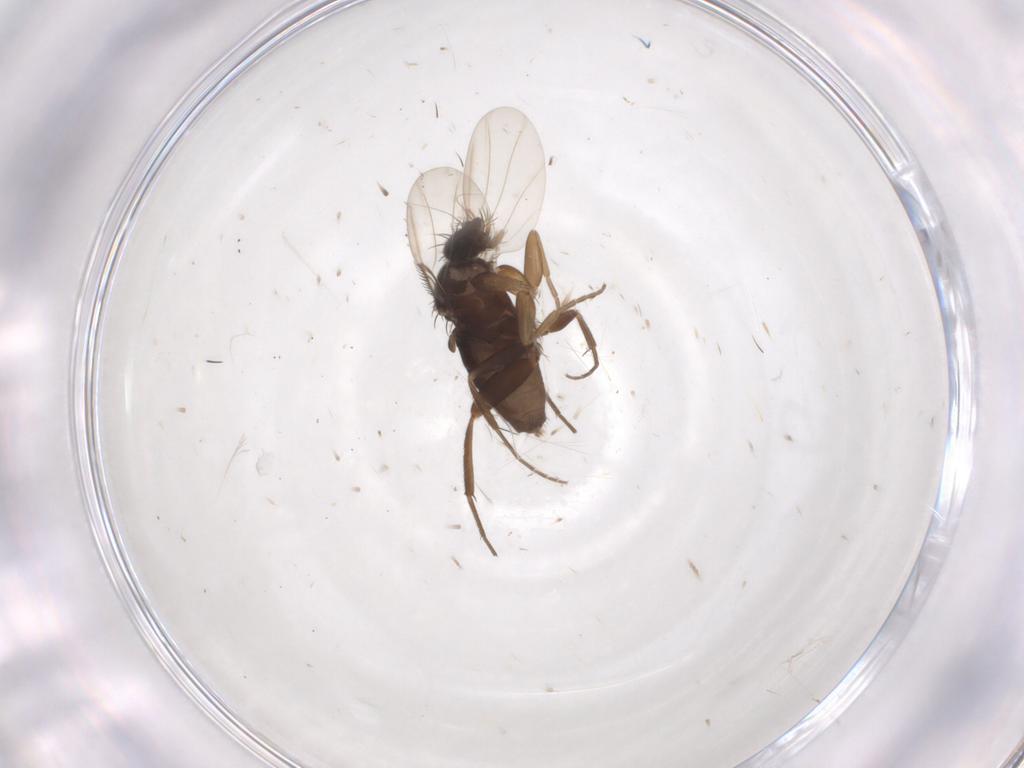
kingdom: Animalia
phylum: Arthropoda
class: Insecta
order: Diptera
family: Phoridae
